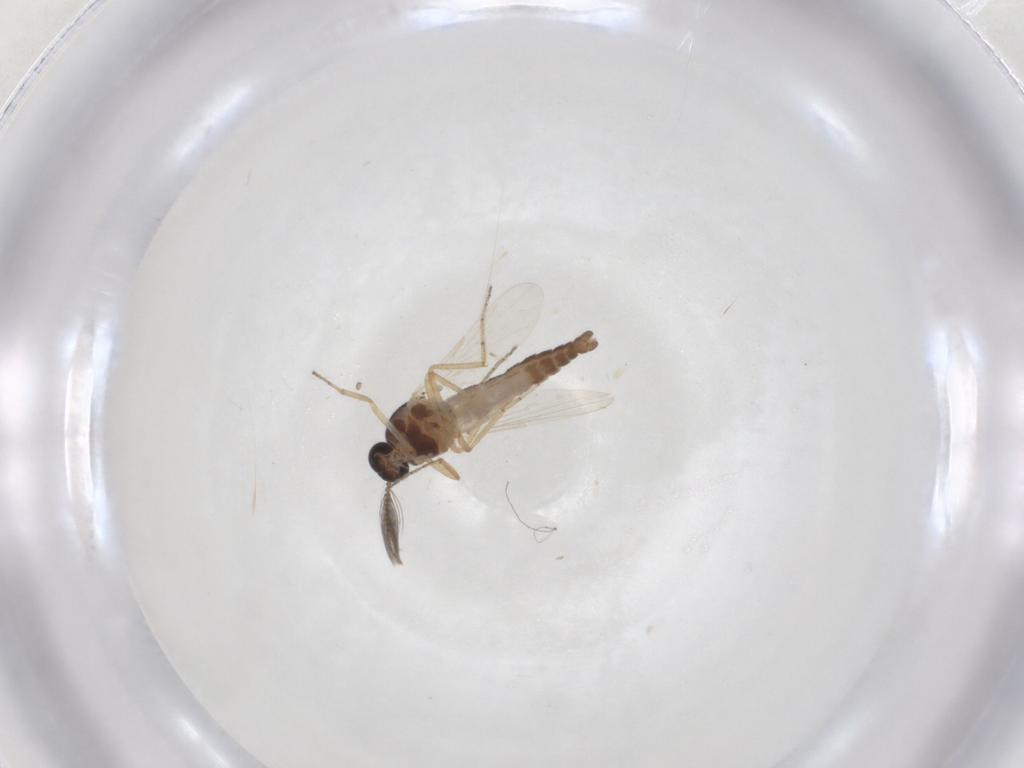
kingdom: Animalia
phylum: Arthropoda
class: Insecta
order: Diptera
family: Ceratopogonidae
